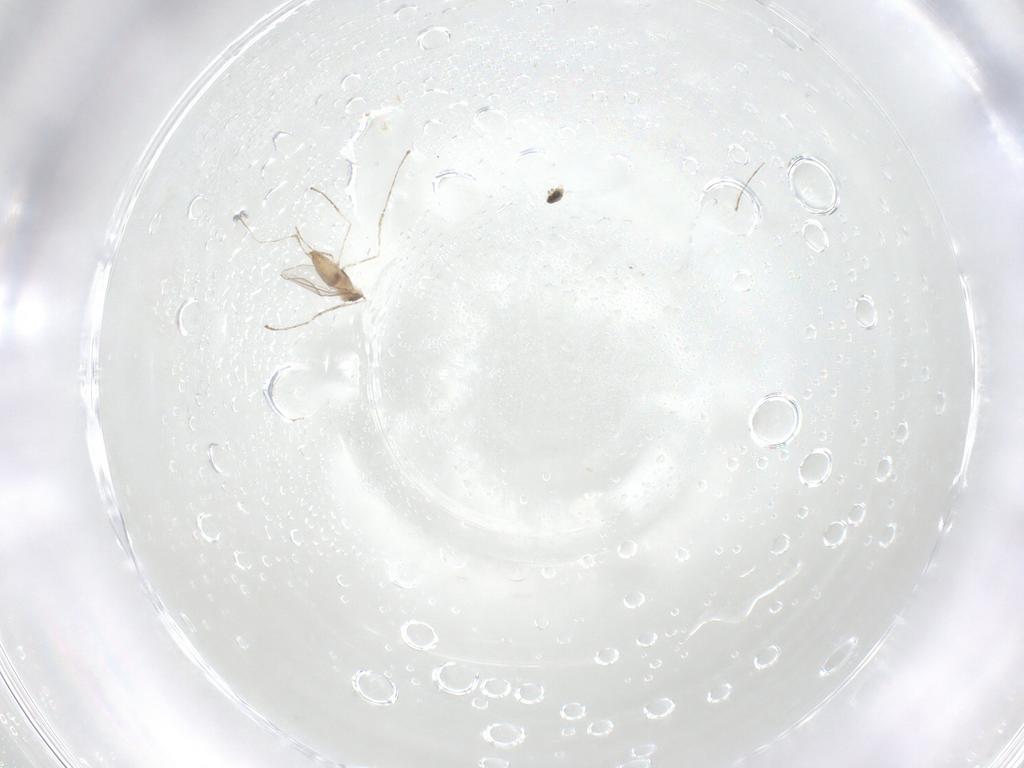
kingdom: Animalia
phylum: Arthropoda
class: Insecta
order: Diptera
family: Cecidomyiidae
